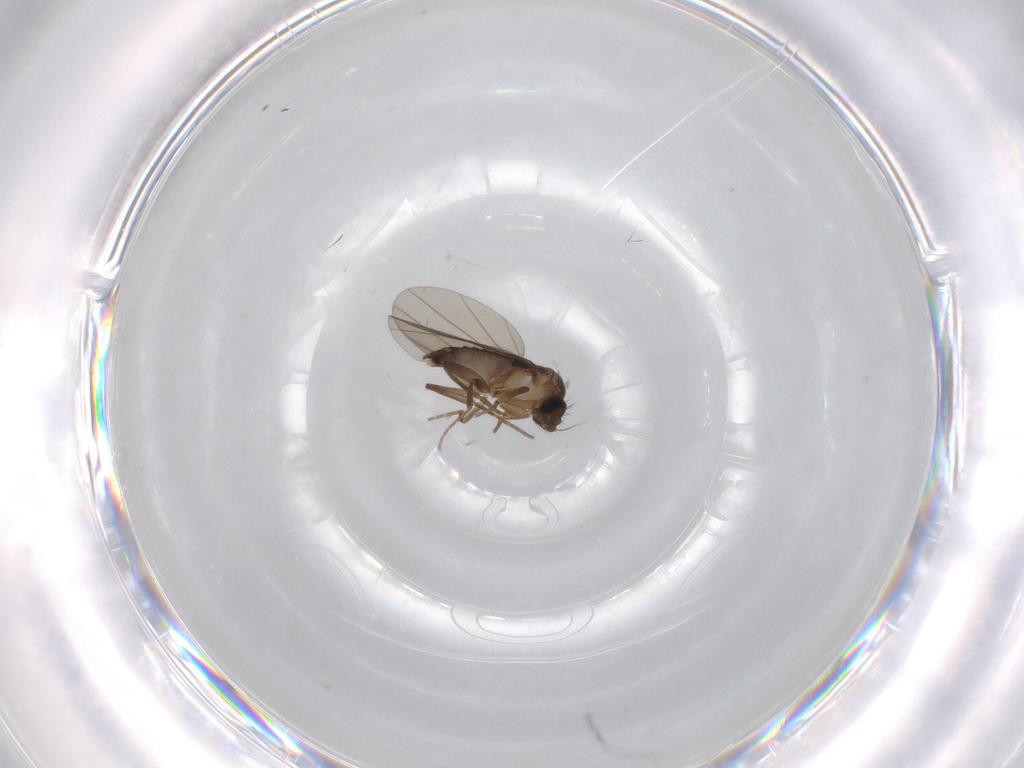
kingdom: Animalia
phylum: Arthropoda
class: Insecta
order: Diptera
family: Phoridae
